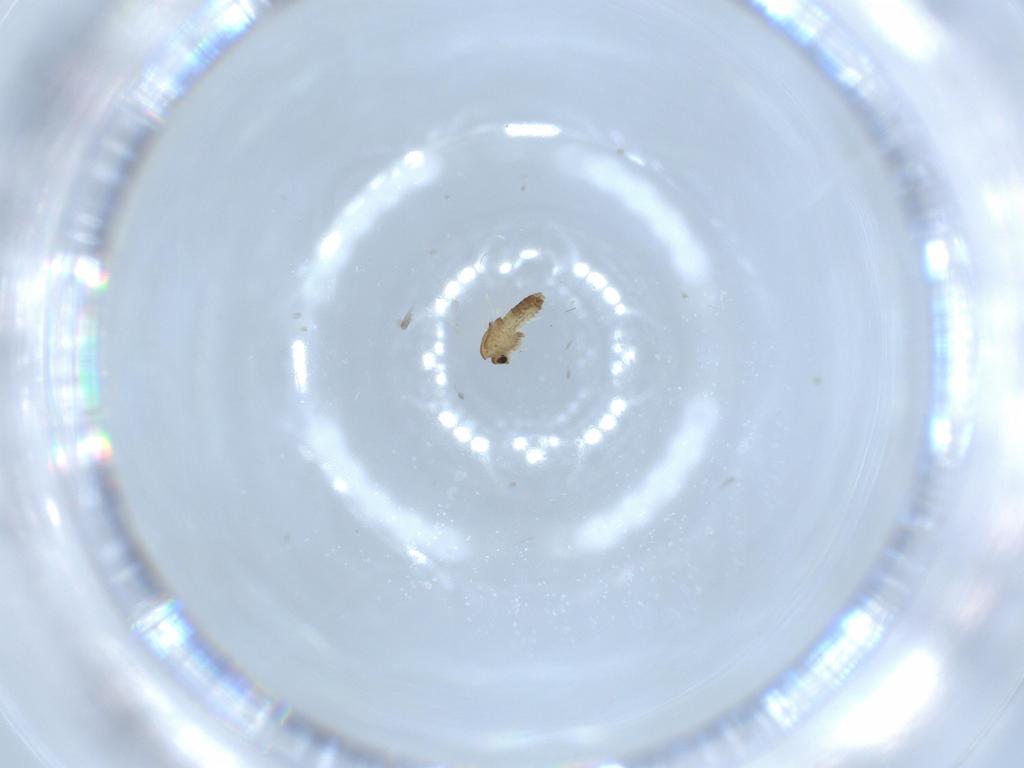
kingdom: Animalia
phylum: Arthropoda
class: Insecta
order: Diptera
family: Chironomidae
